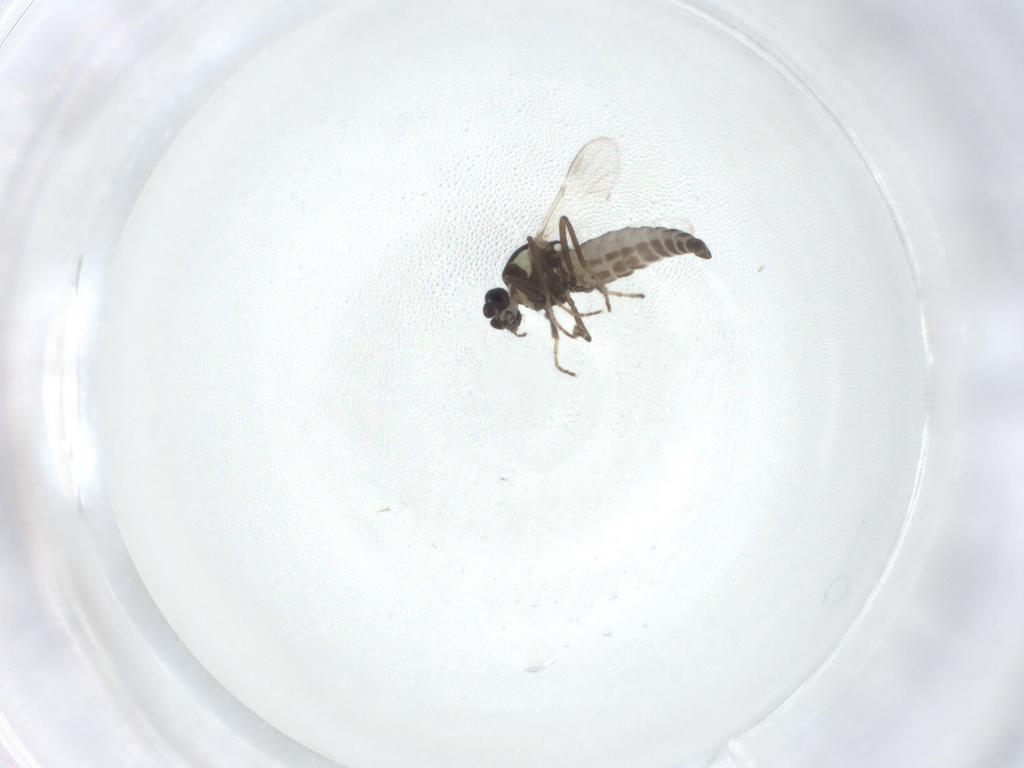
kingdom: Animalia
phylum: Arthropoda
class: Insecta
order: Diptera
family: Ceratopogonidae
